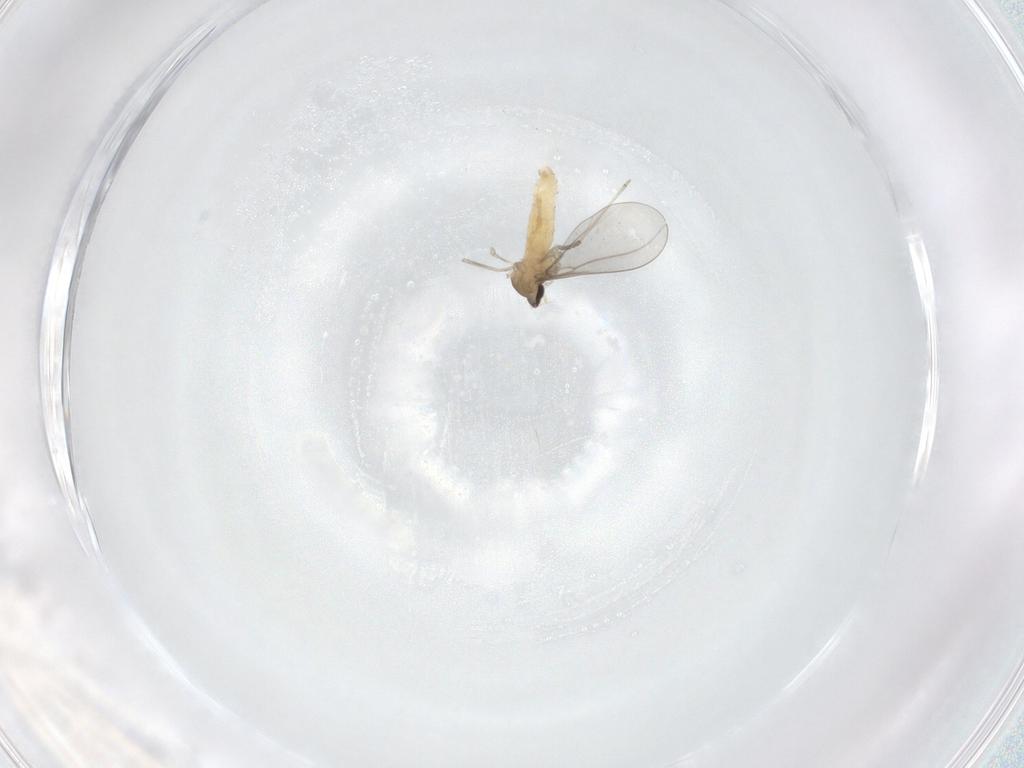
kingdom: Animalia
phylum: Arthropoda
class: Insecta
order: Diptera
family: Cecidomyiidae
